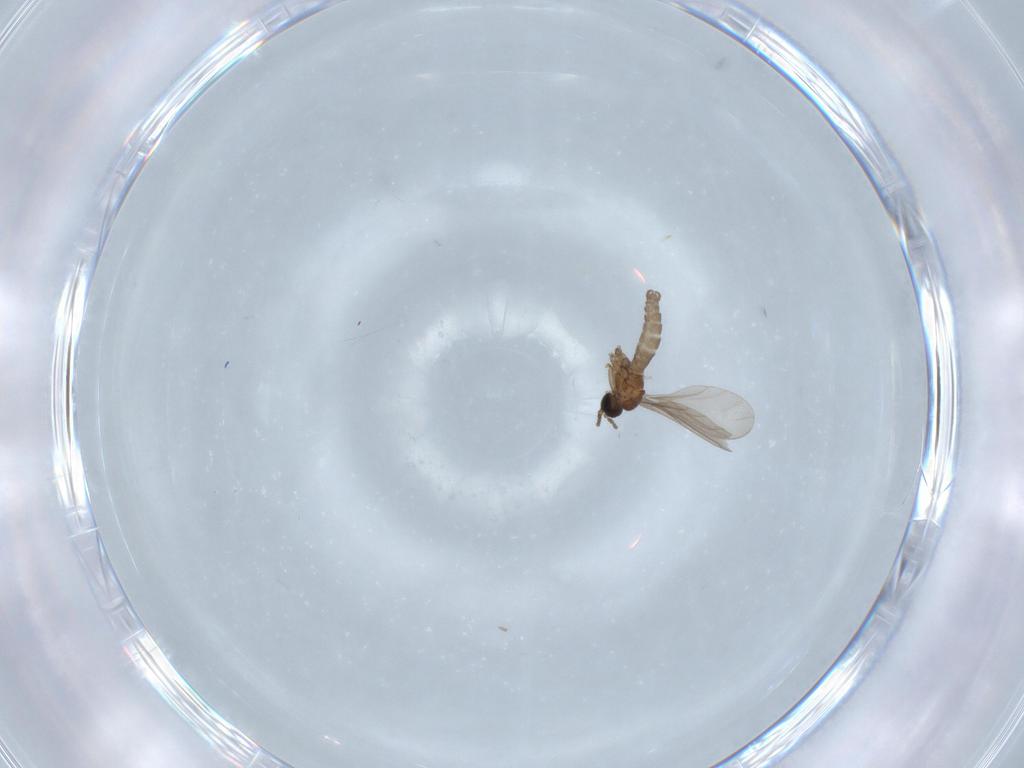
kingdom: Animalia
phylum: Arthropoda
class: Insecta
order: Diptera
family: Sciaridae
